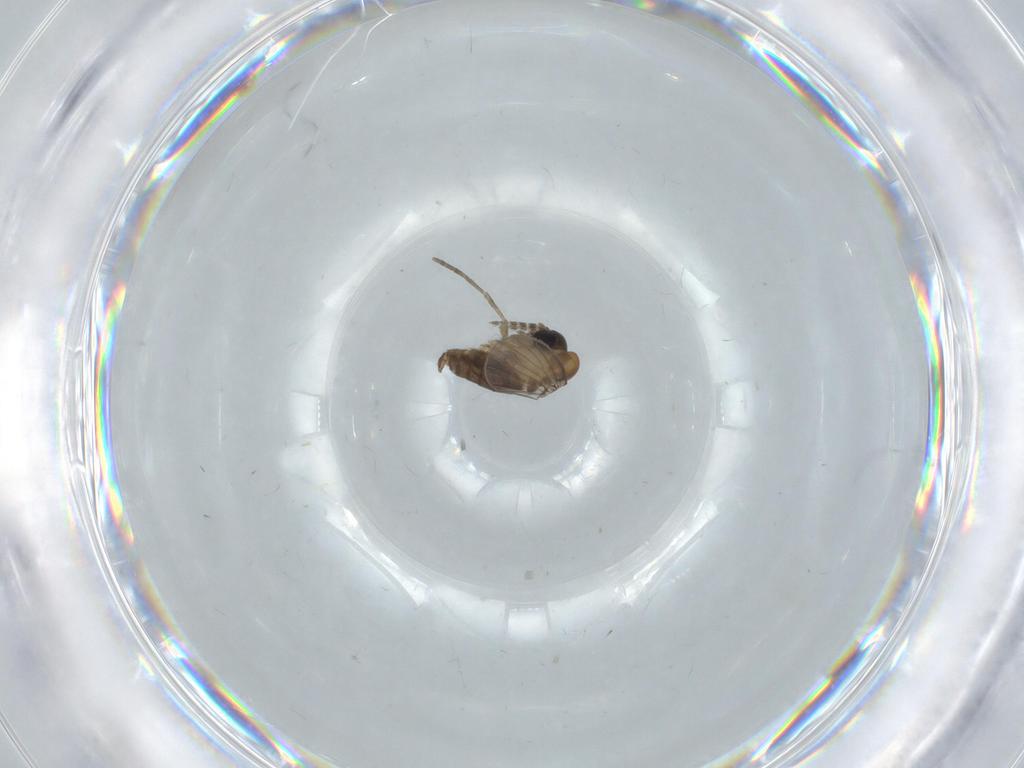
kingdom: Animalia
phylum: Arthropoda
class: Insecta
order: Diptera
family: Psychodidae
